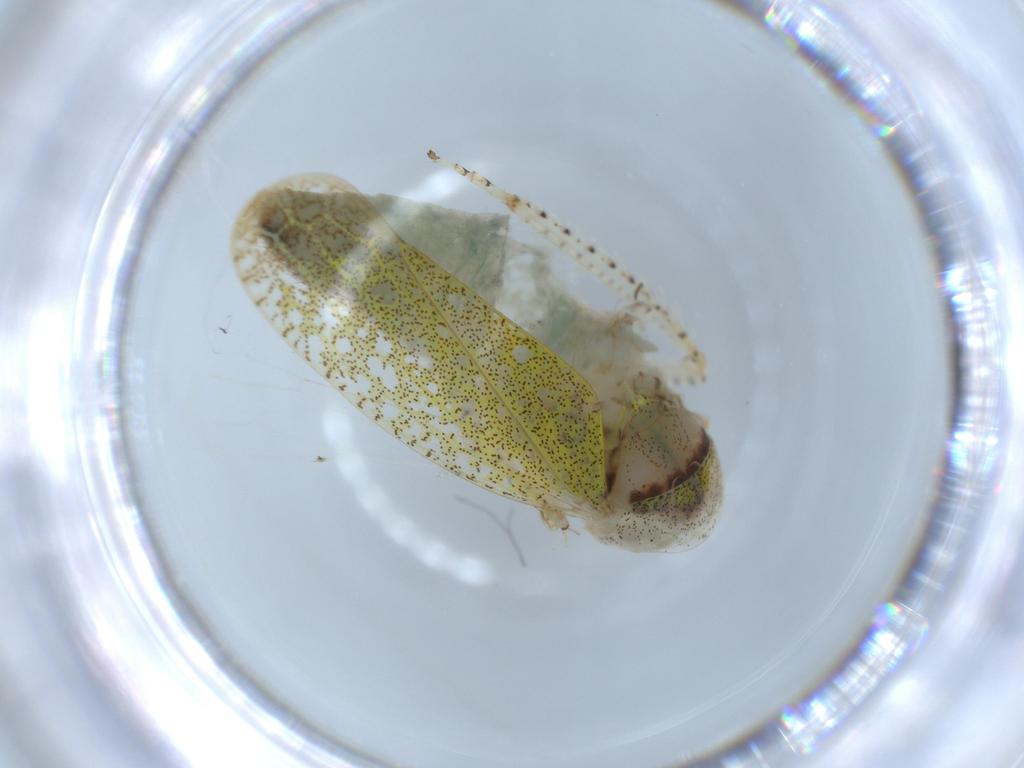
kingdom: Animalia
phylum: Arthropoda
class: Insecta
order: Hemiptera
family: Cicadellidae
